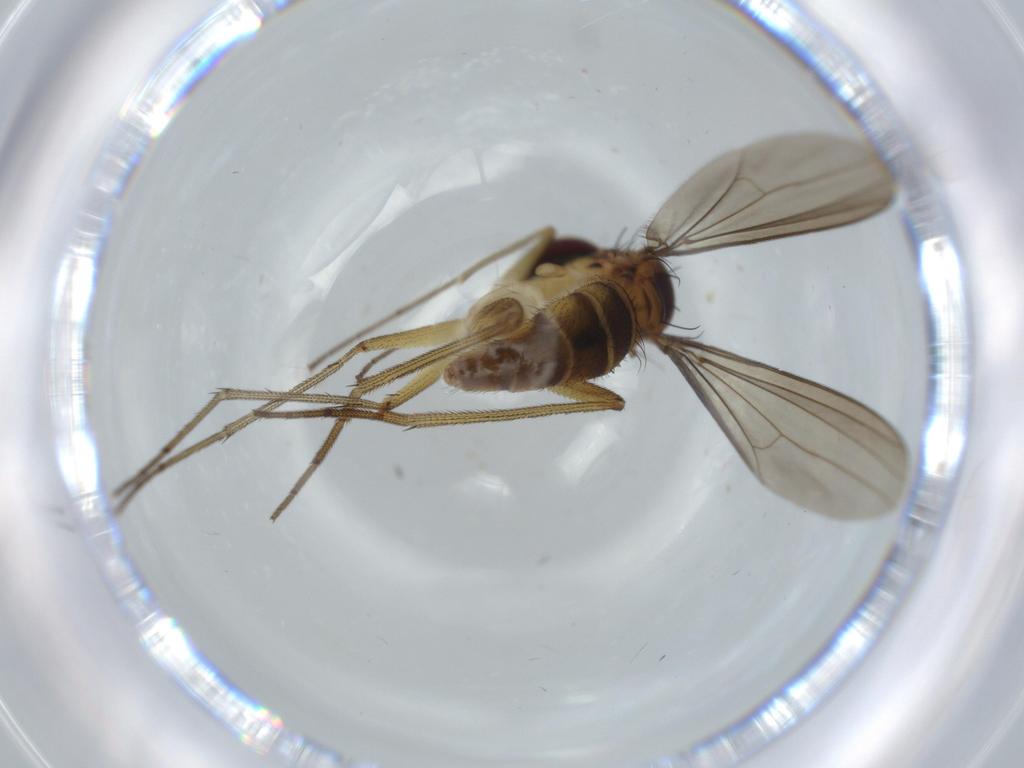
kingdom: Animalia
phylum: Arthropoda
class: Insecta
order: Diptera
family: Dolichopodidae
